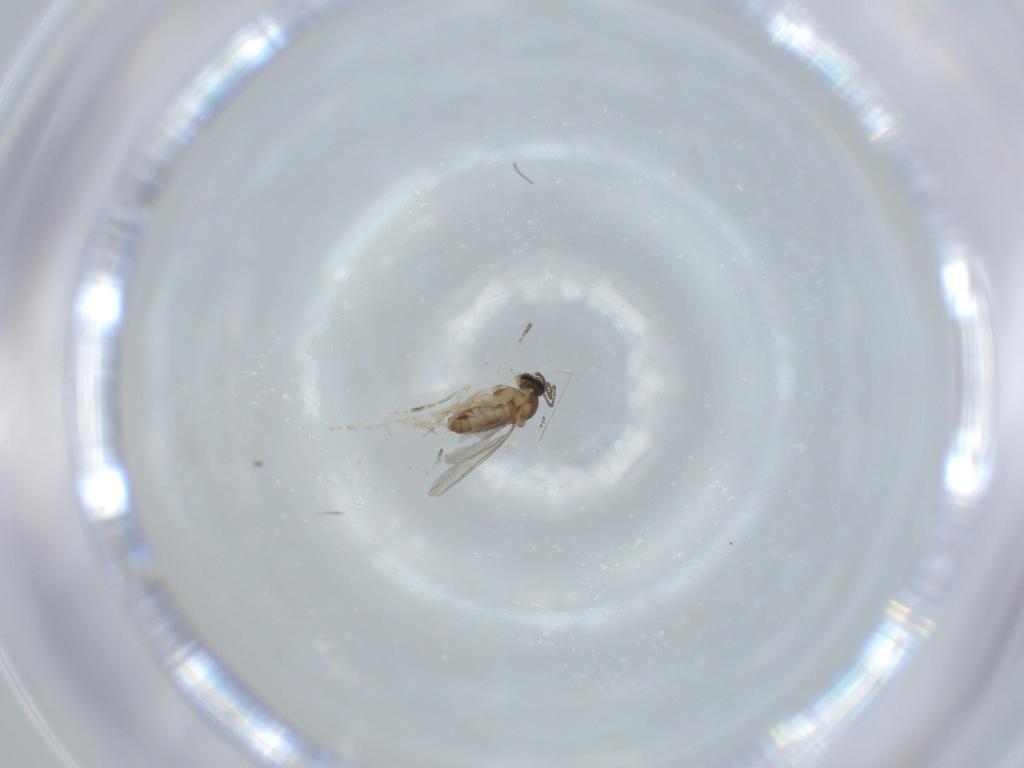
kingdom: Animalia
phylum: Arthropoda
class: Insecta
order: Diptera
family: Cecidomyiidae
